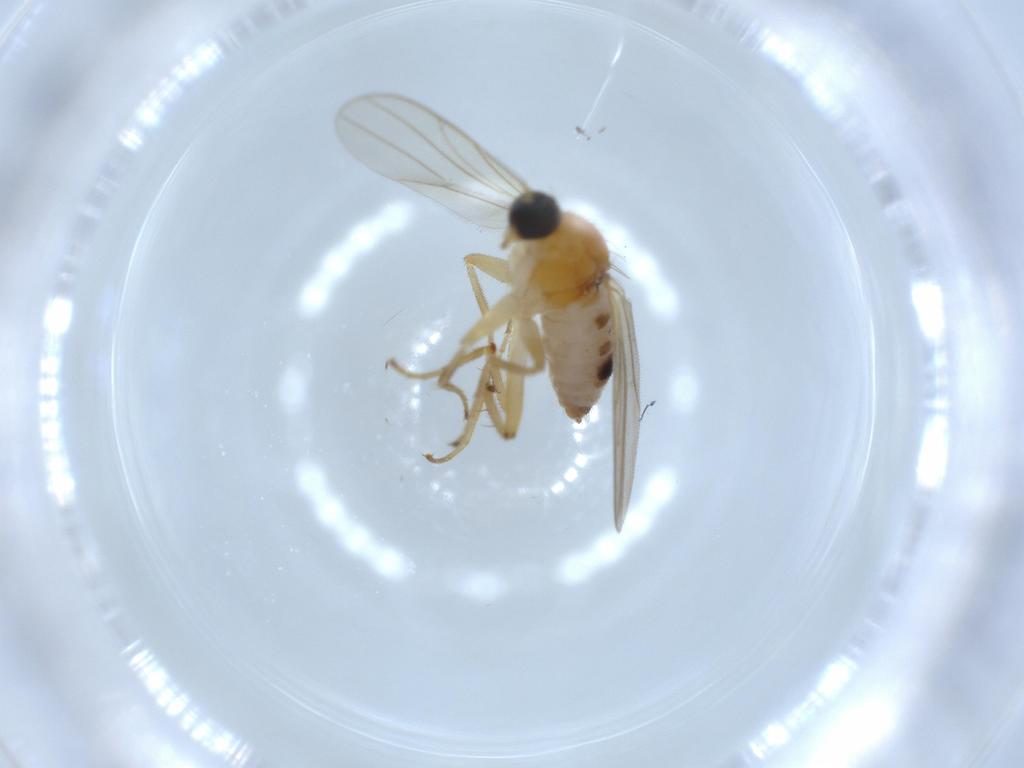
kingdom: Animalia
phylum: Arthropoda
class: Insecta
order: Diptera
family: Hybotidae
